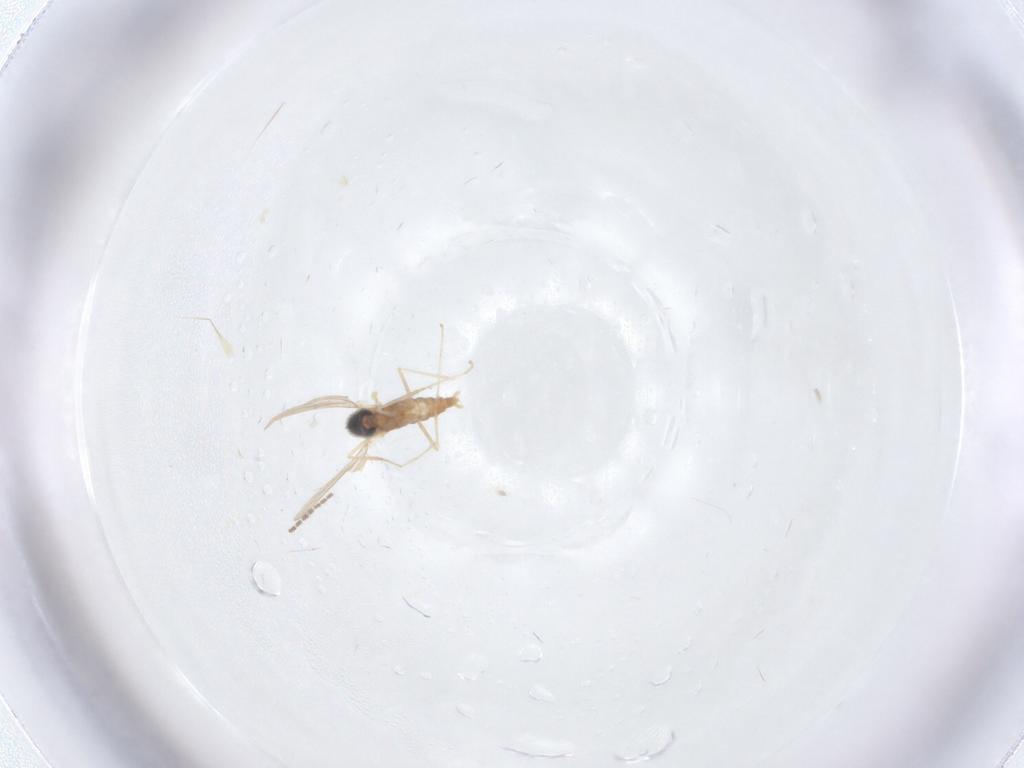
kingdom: Animalia
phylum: Arthropoda
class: Insecta
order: Diptera
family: Cecidomyiidae
